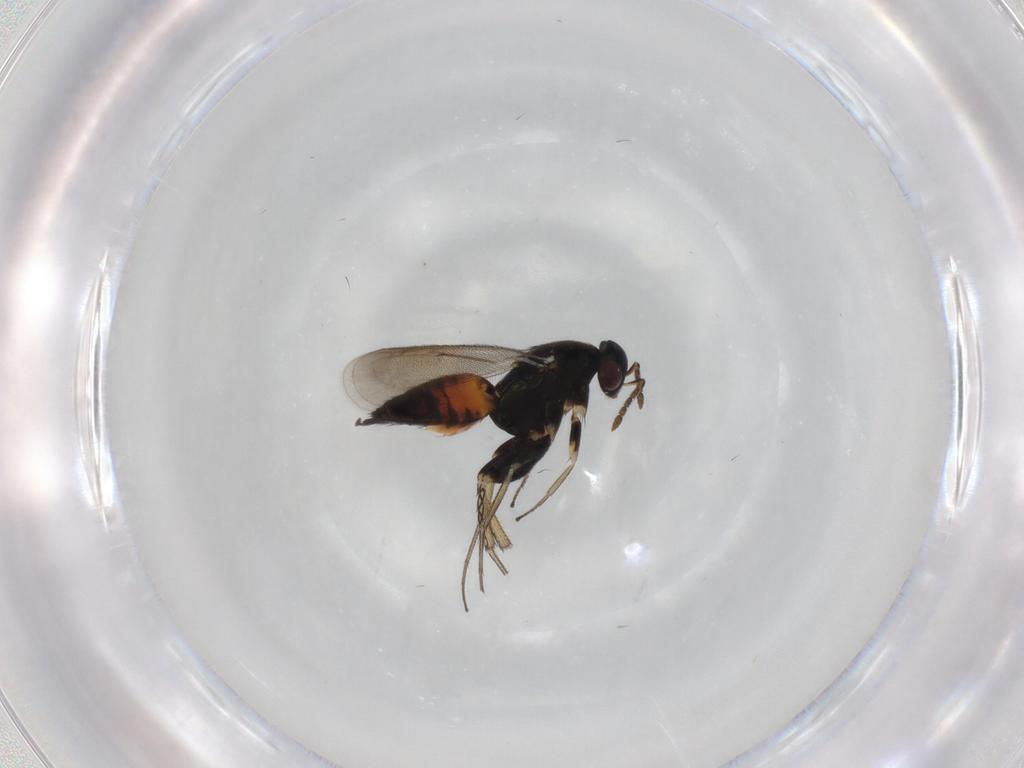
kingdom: Animalia
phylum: Arthropoda
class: Insecta
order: Hymenoptera
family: Eulophidae
